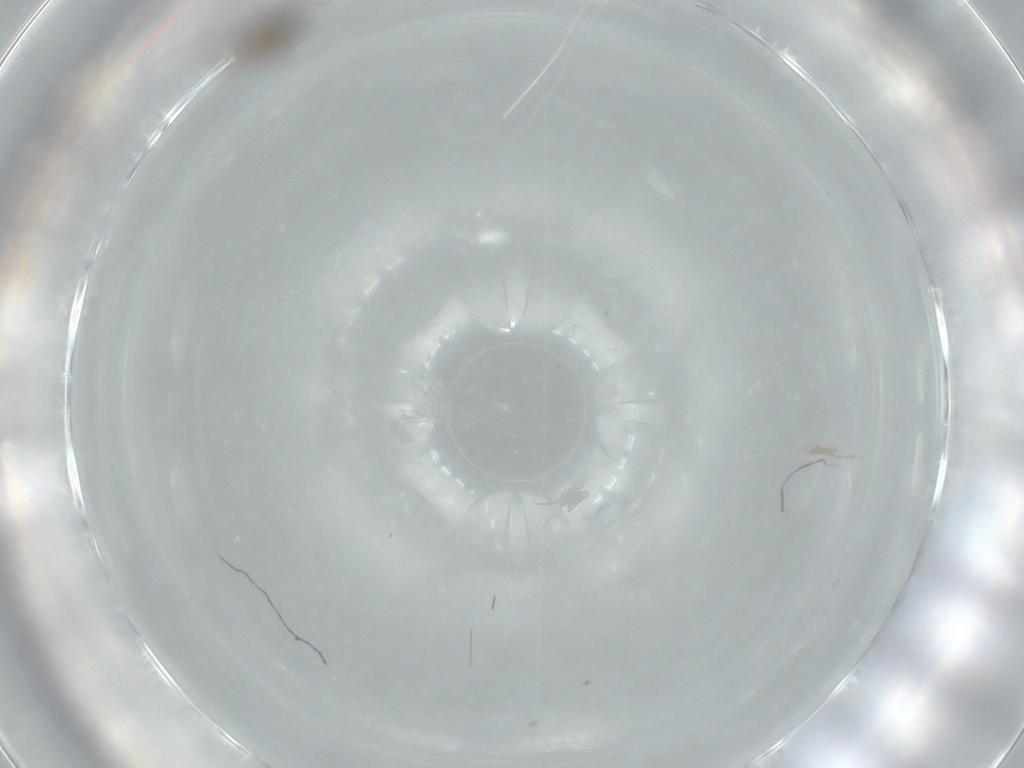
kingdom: Animalia
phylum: Arthropoda
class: Insecta
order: Diptera
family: Cecidomyiidae
